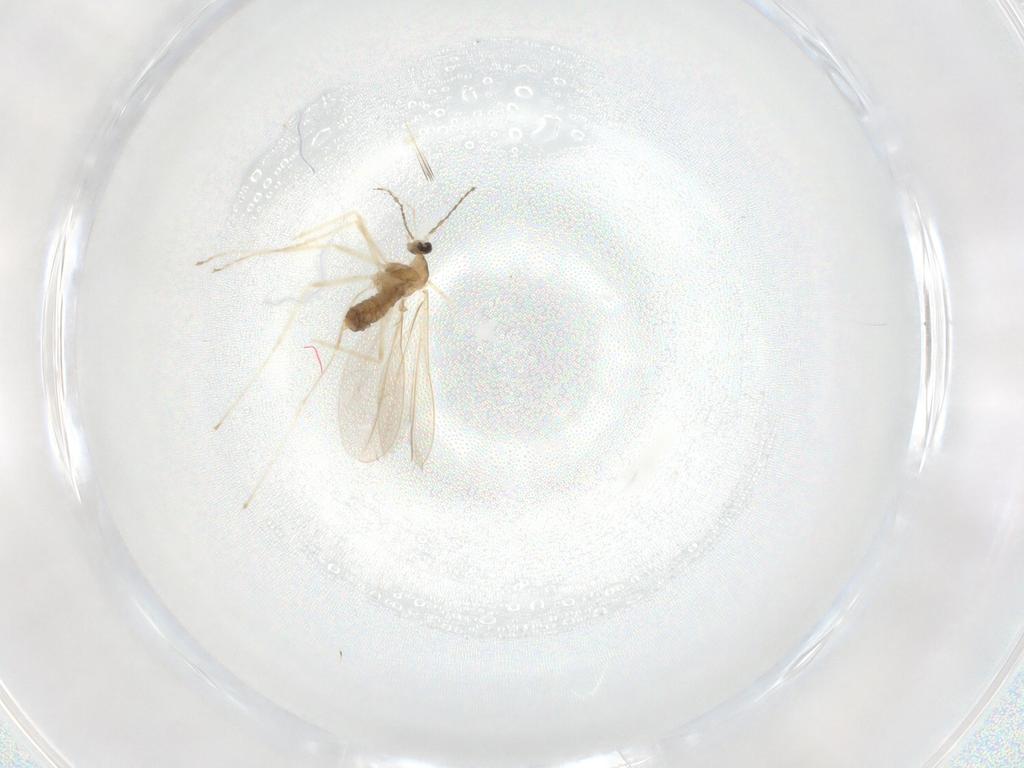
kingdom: Animalia
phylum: Arthropoda
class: Insecta
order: Diptera
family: Cecidomyiidae
